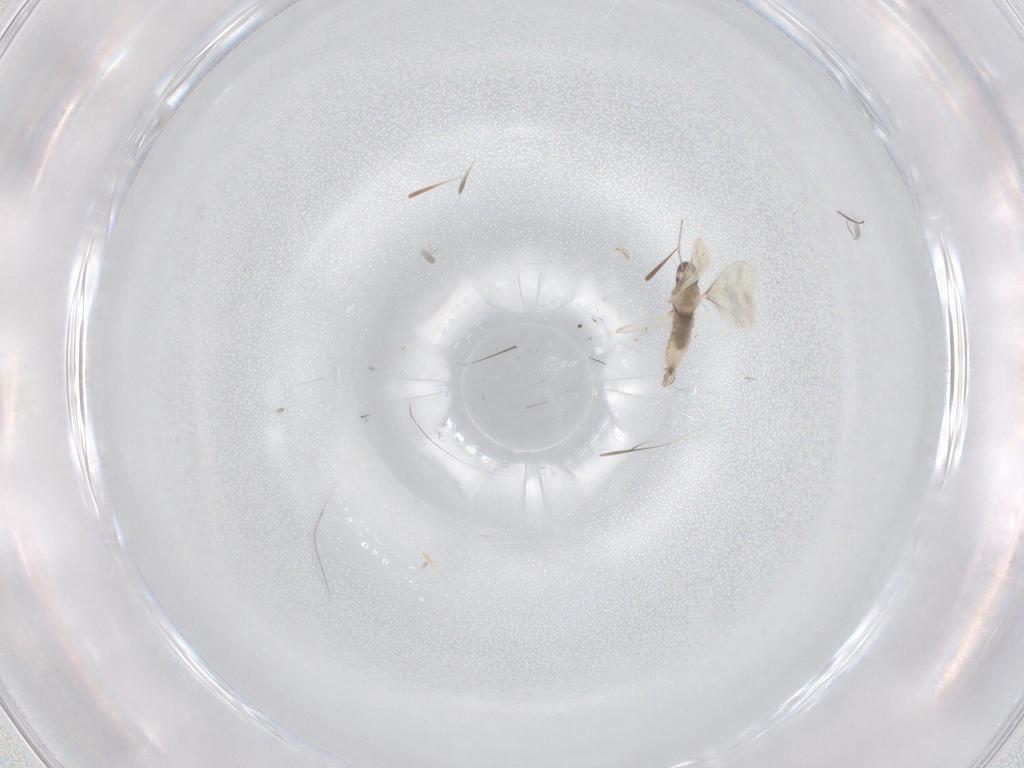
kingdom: Animalia
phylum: Arthropoda
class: Insecta
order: Diptera
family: Cecidomyiidae
